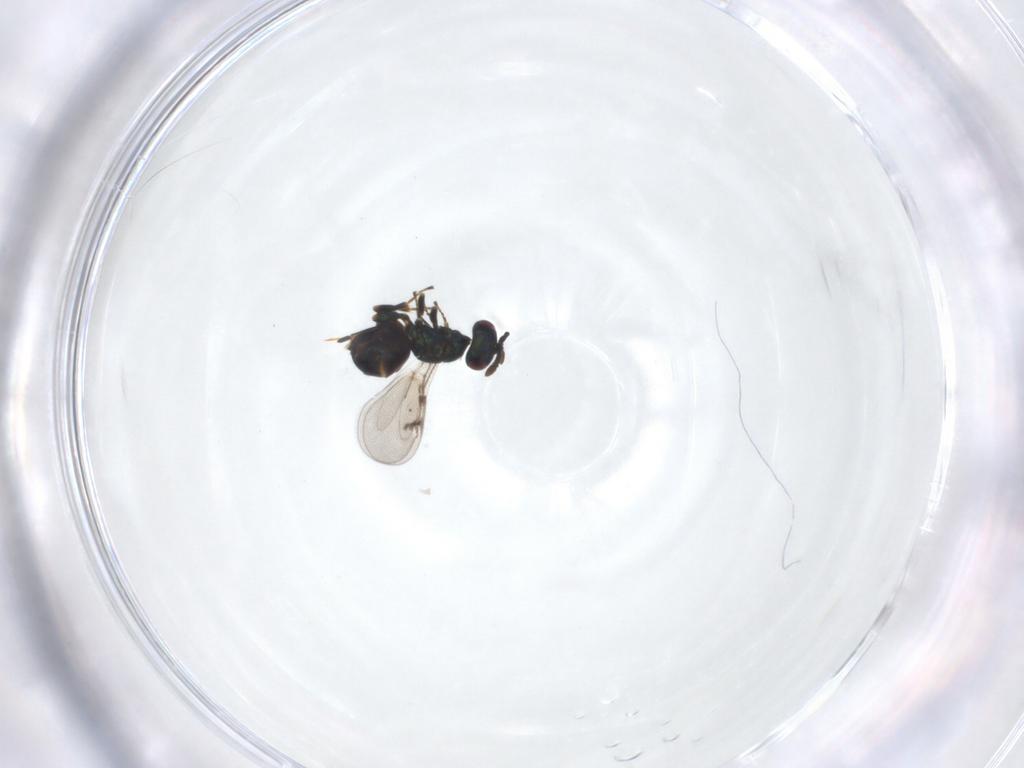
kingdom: Animalia
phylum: Arthropoda
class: Insecta
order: Hymenoptera
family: Pteromalidae
